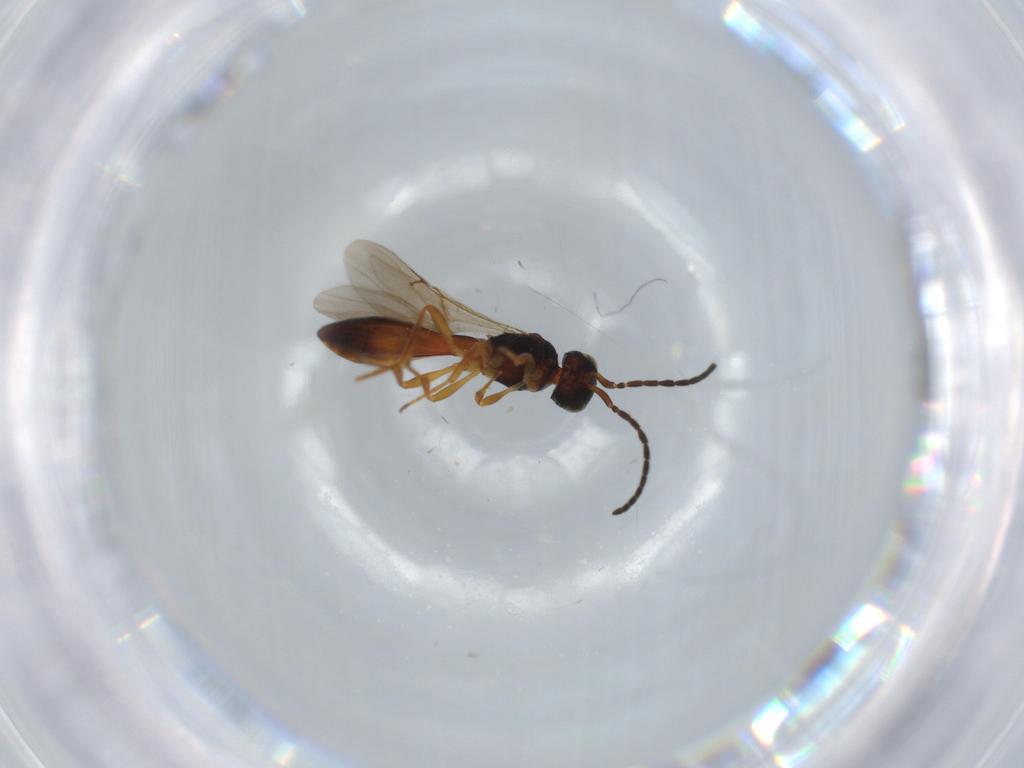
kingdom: Animalia
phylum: Arthropoda
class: Insecta
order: Hymenoptera
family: Scelionidae
